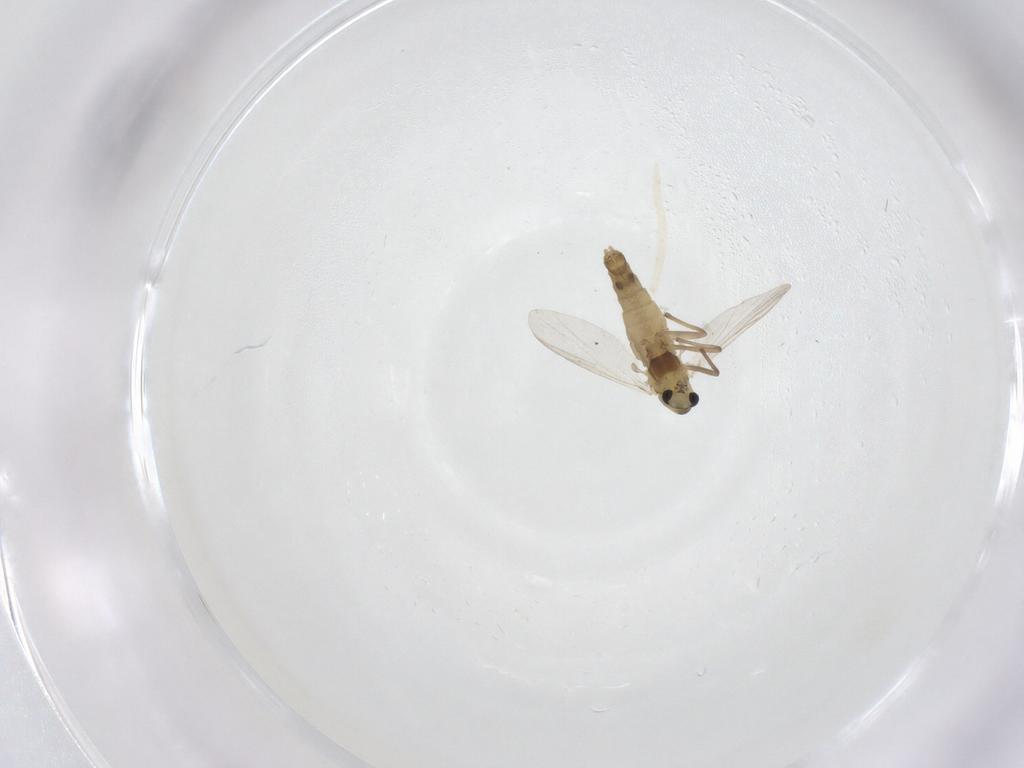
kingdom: Animalia
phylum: Arthropoda
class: Insecta
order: Diptera
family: Chironomidae
